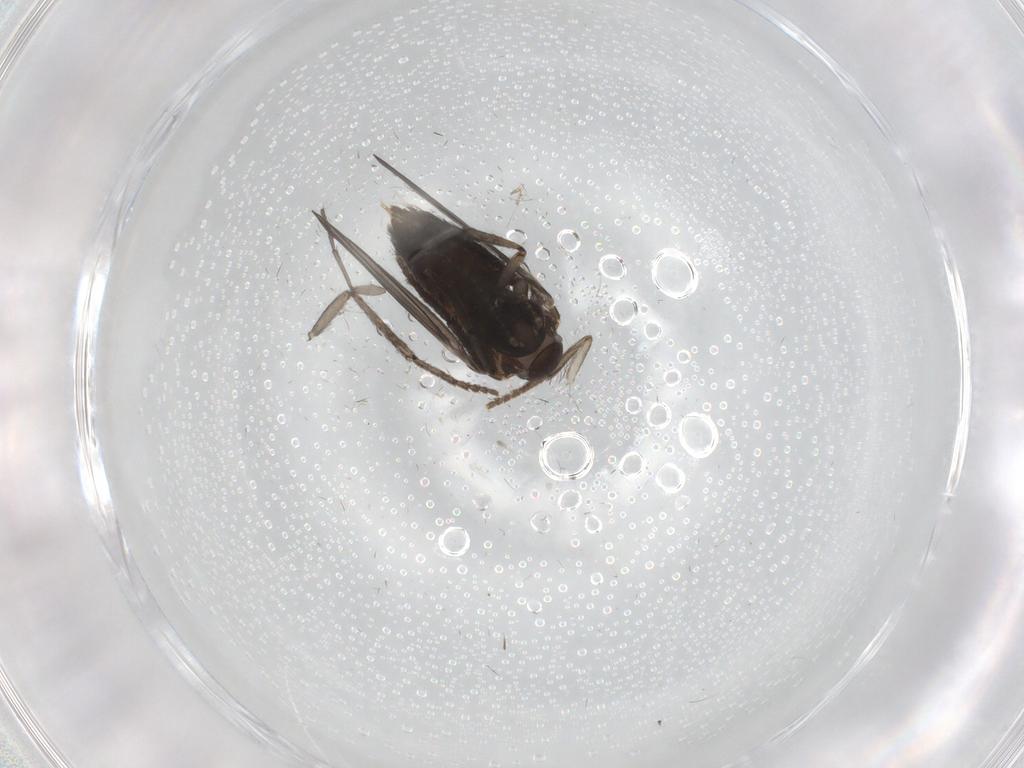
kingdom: Animalia
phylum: Arthropoda
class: Insecta
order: Diptera
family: Psychodidae
